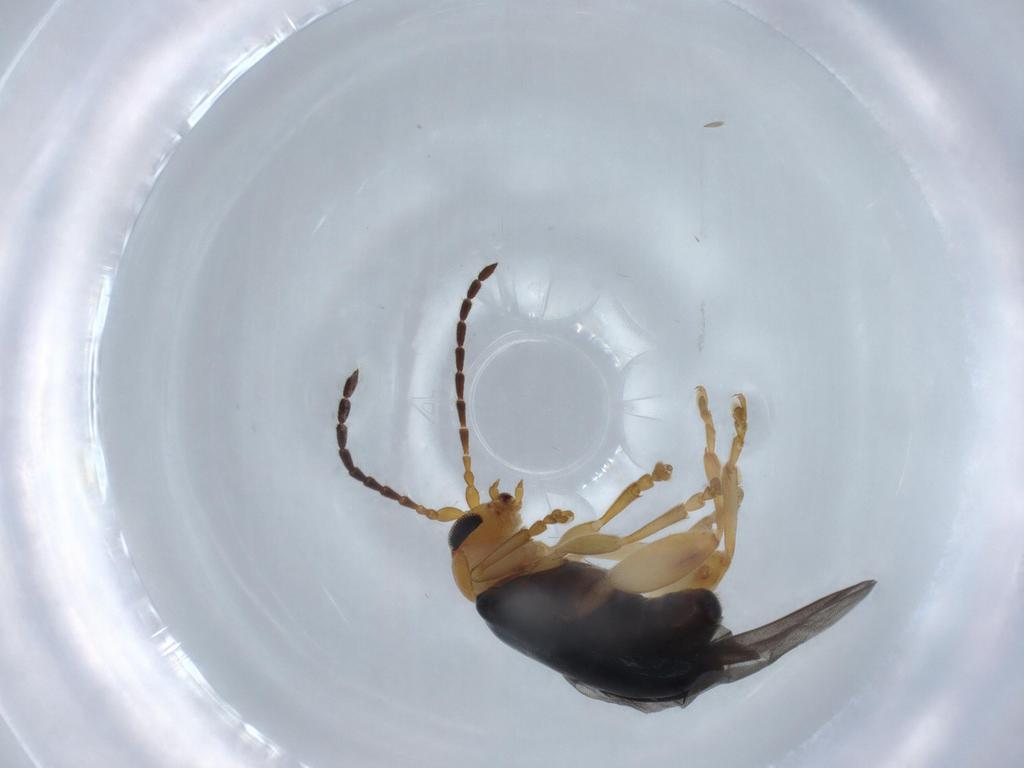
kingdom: Animalia
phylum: Arthropoda
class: Insecta
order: Coleoptera
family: Chrysomelidae
